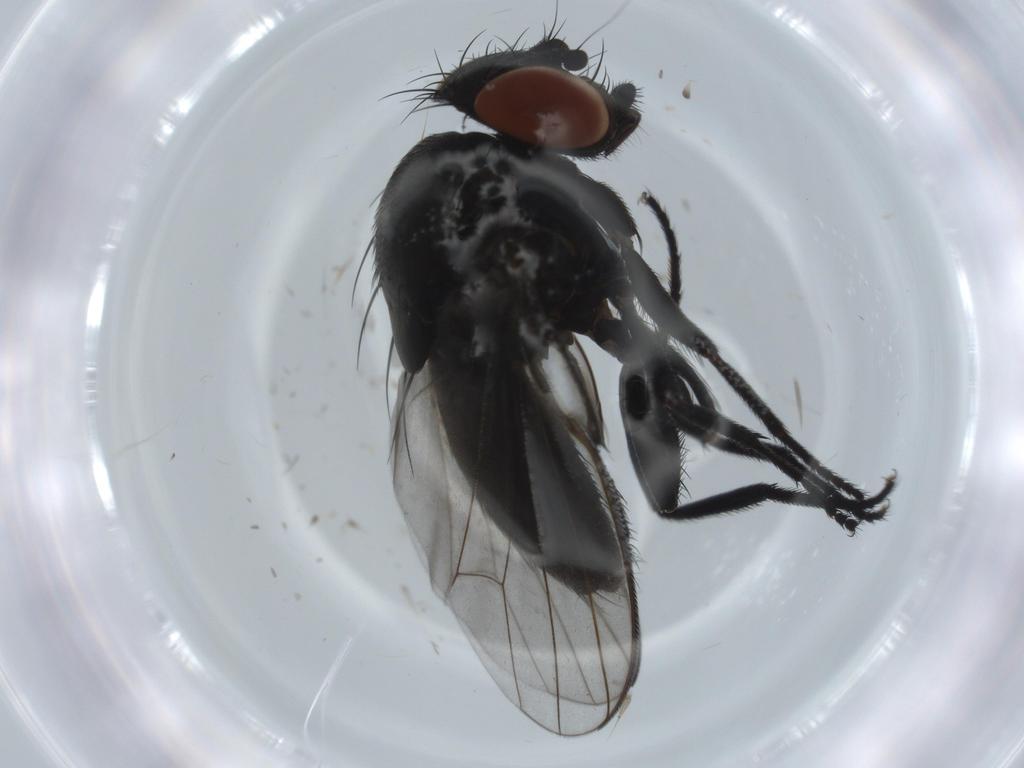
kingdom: Animalia
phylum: Arthropoda
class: Insecta
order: Diptera
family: Milichiidae
